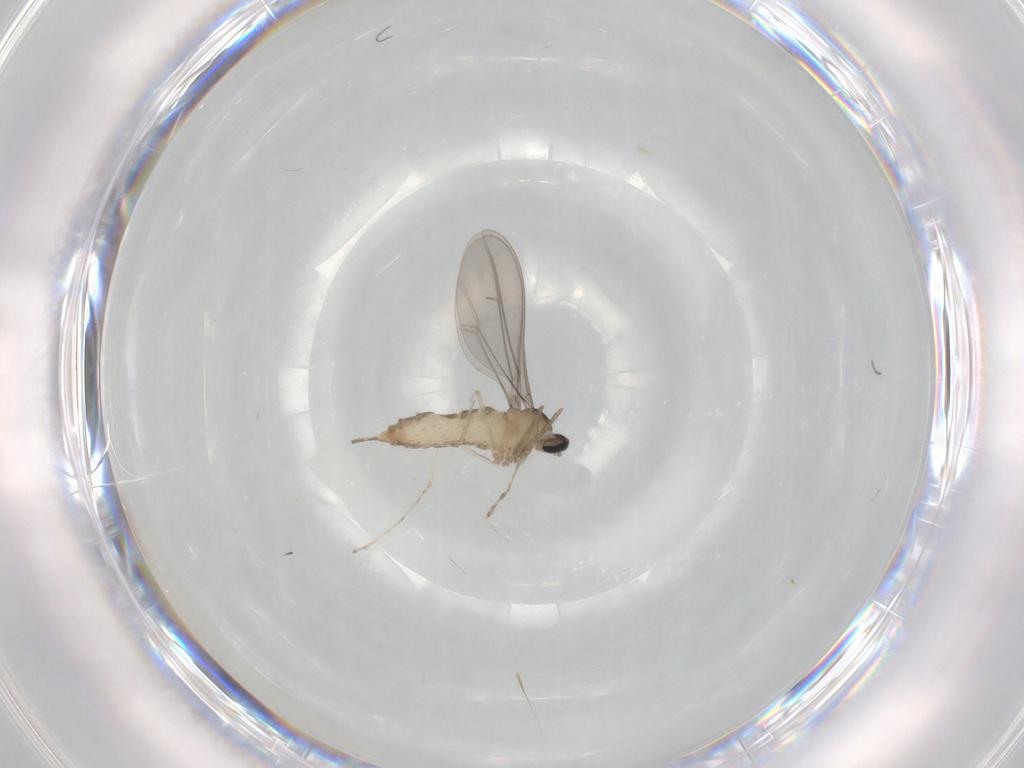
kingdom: Animalia
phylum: Arthropoda
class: Insecta
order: Diptera
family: Cecidomyiidae
